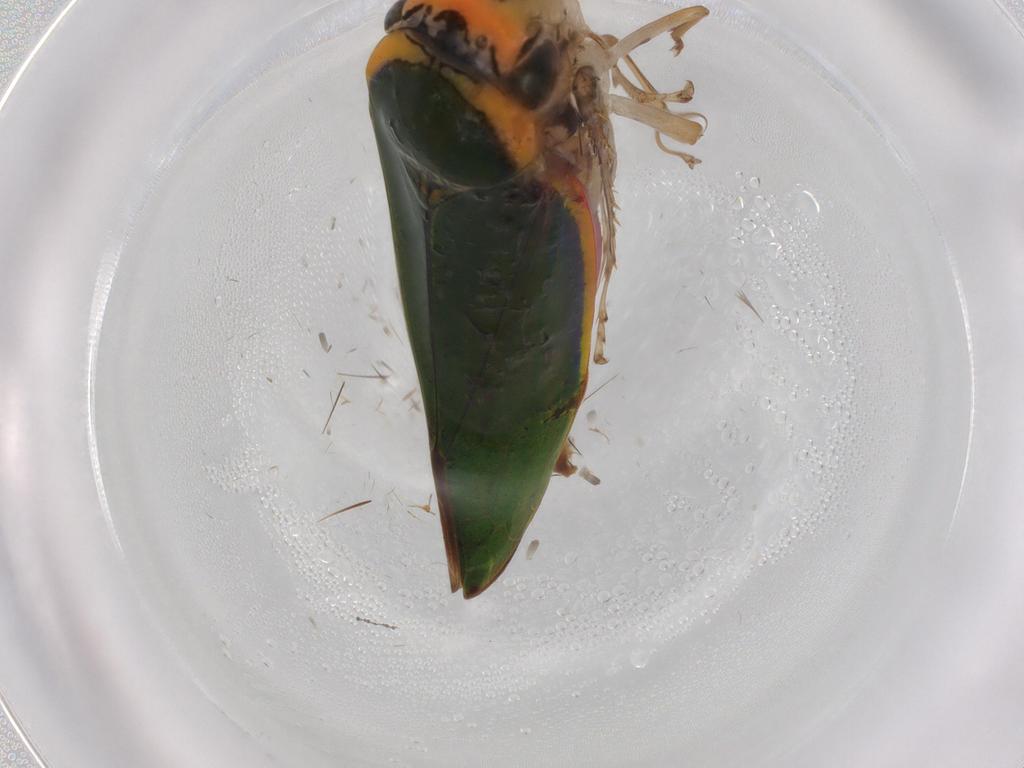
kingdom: Animalia
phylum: Arthropoda
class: Insecta
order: Hemiptera
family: Cicadellidae
